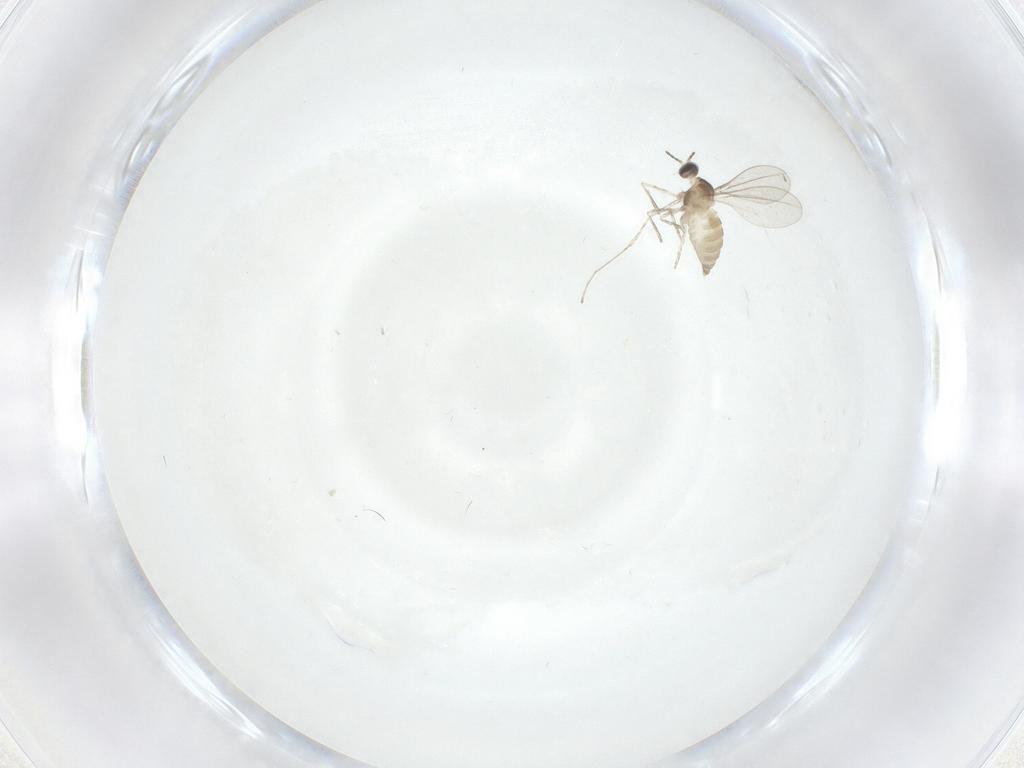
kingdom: Animalia
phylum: Arthropoda
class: Insecta
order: Diptera
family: Cecidomyiidae
